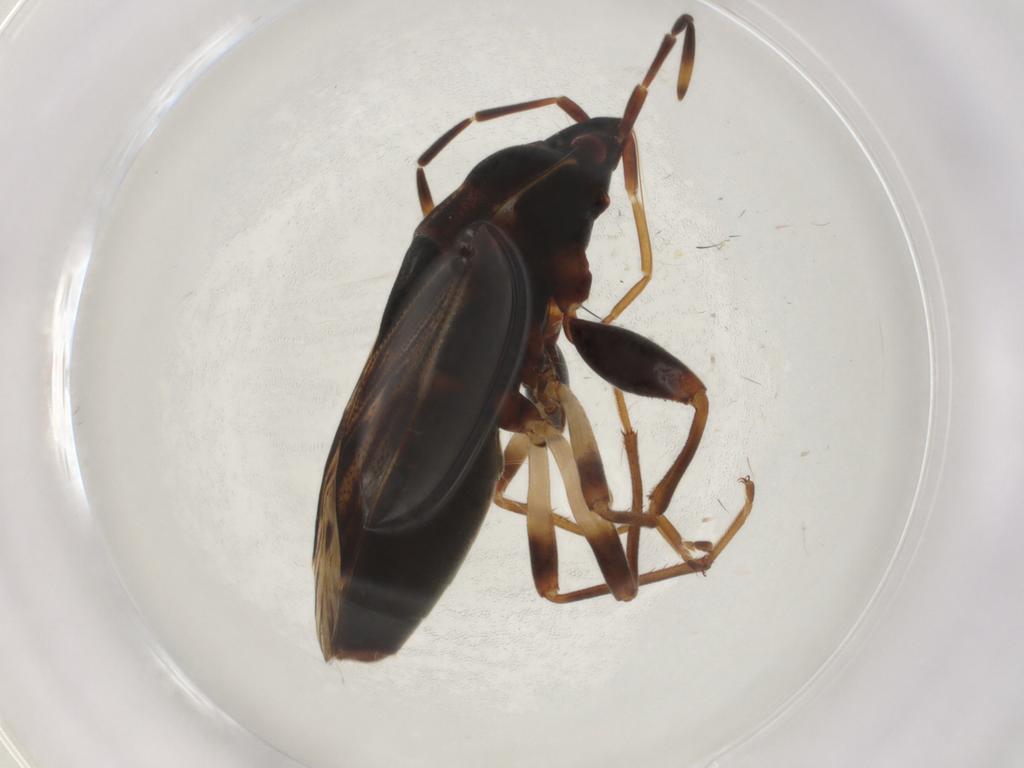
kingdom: Animalia
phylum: Arthropoda
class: Insecta
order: Hemiptera
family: Rhyparochromidae
